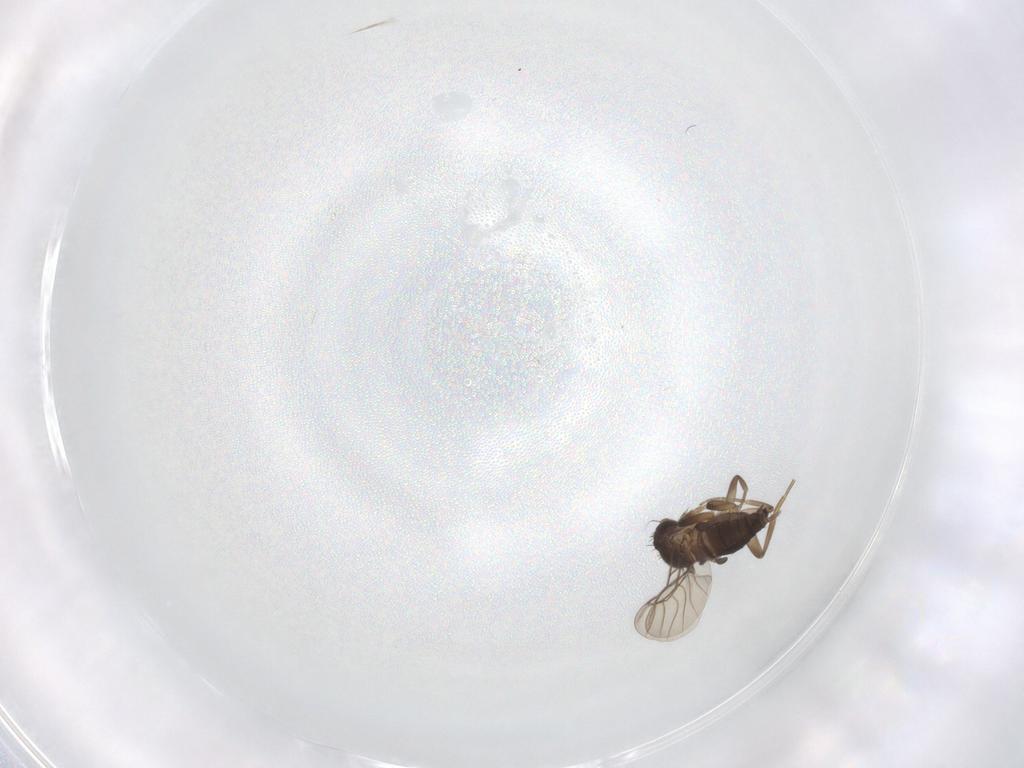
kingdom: Animalia
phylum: Arthropoda
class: Insecta
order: Diptera
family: Phoridae
